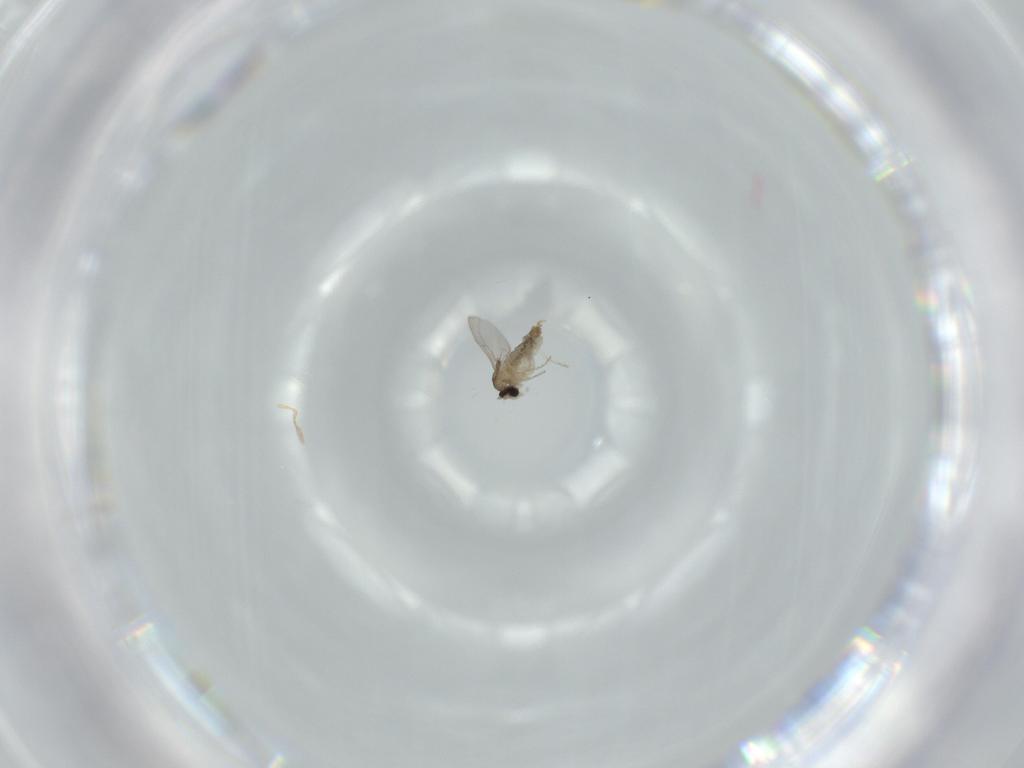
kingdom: Animalia
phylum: Arthropoda
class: Insecta
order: Diptera
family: Cecidomyiidae
